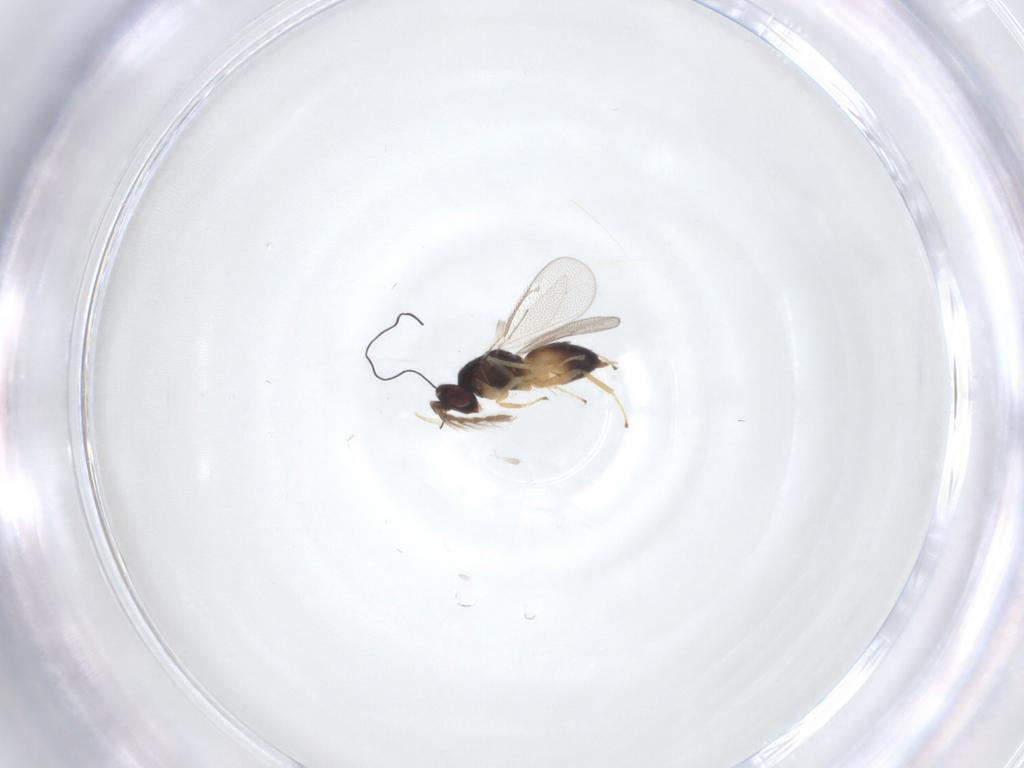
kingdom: Animalia
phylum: Arthropoda
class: Insecta
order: Hymenoptera
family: Eulophidae
